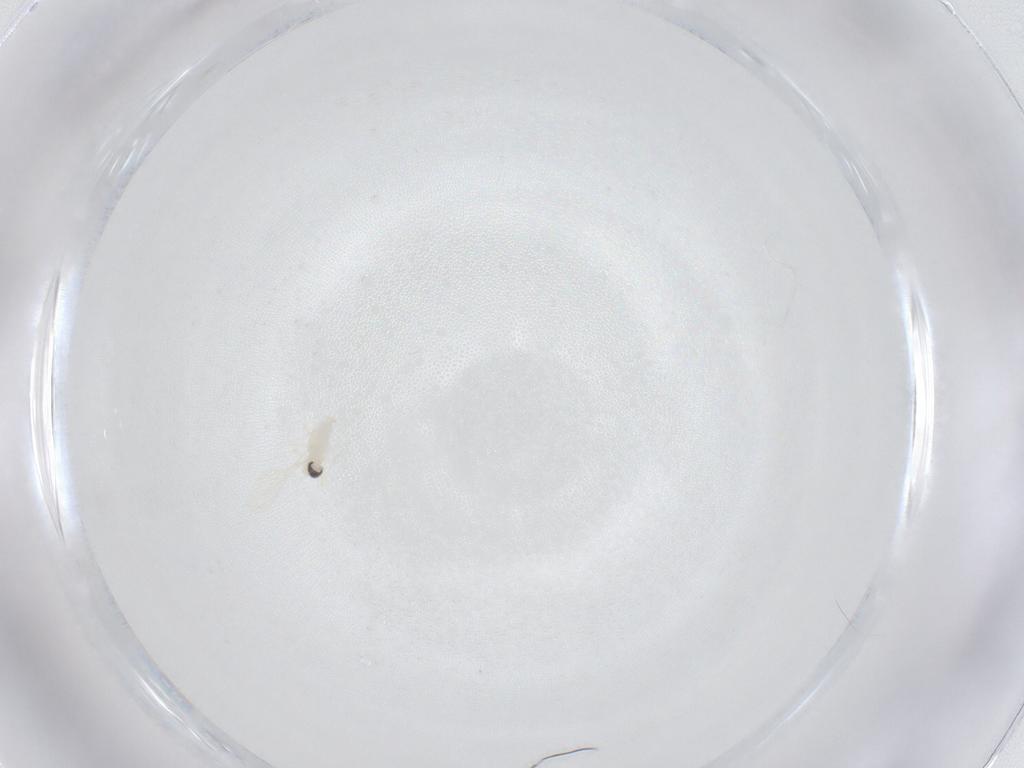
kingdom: Animalia
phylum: Arthropoda
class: Insecta
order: Diptera
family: Cecidomyiidae
